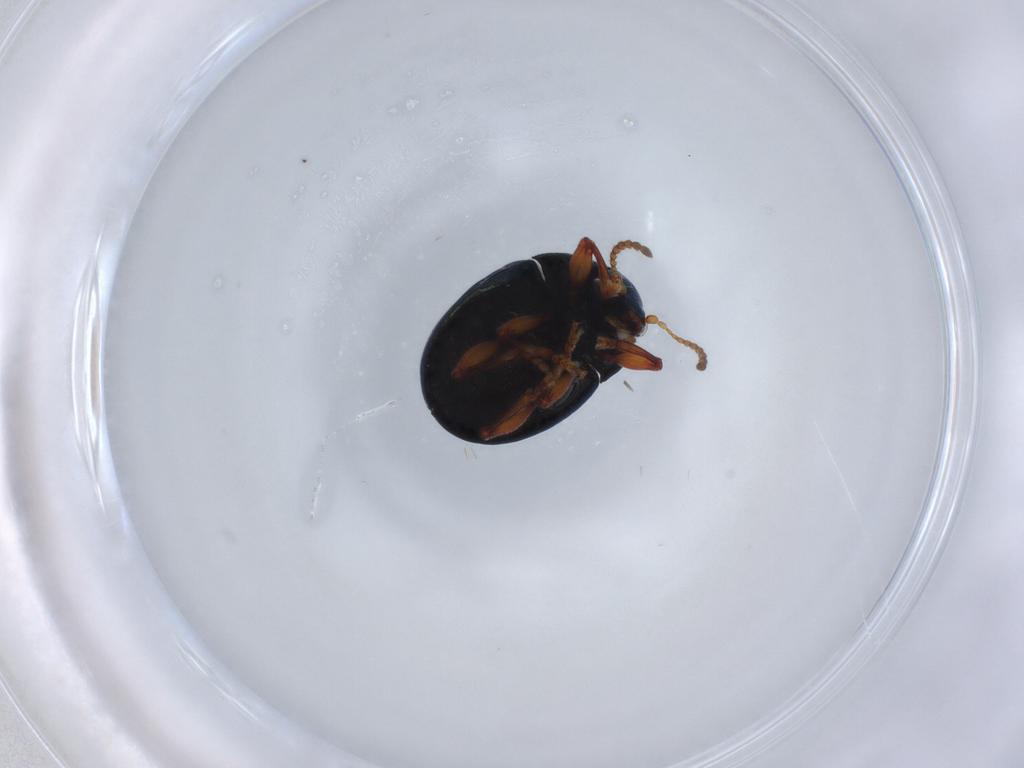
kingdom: Animalia
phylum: Arthropoda
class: Insecta
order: Coleoptera
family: Chrysomelidae
